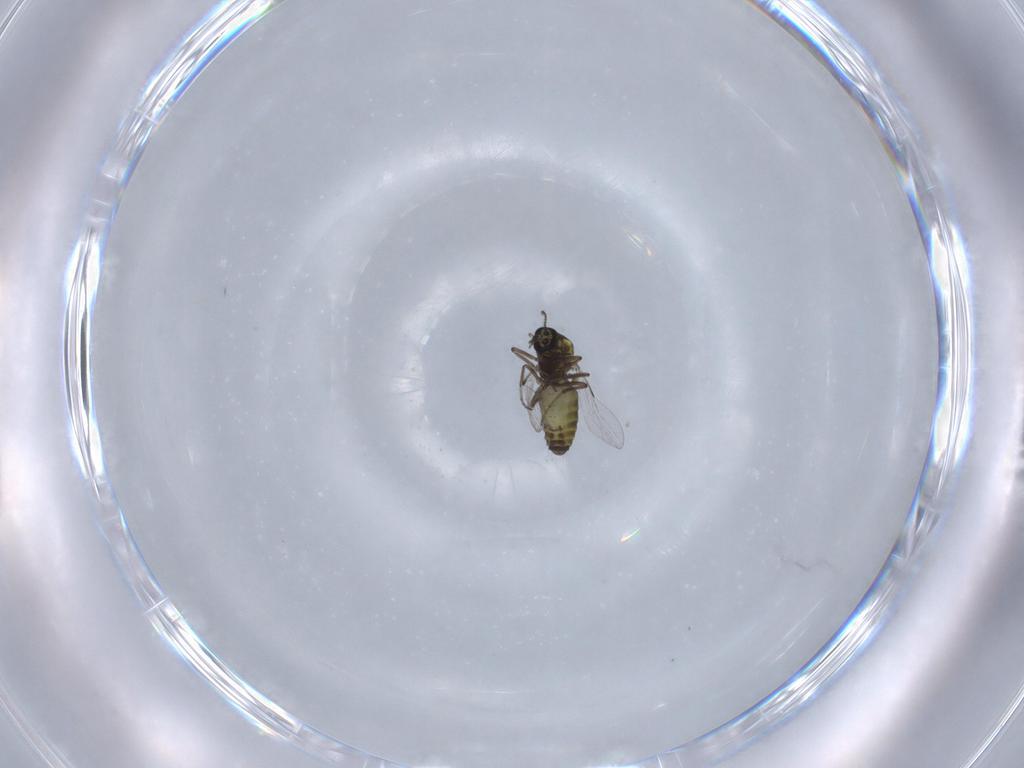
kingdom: Animalia
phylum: Arthropoda
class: Insecta
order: Diptera
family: Ceratopogonidae
